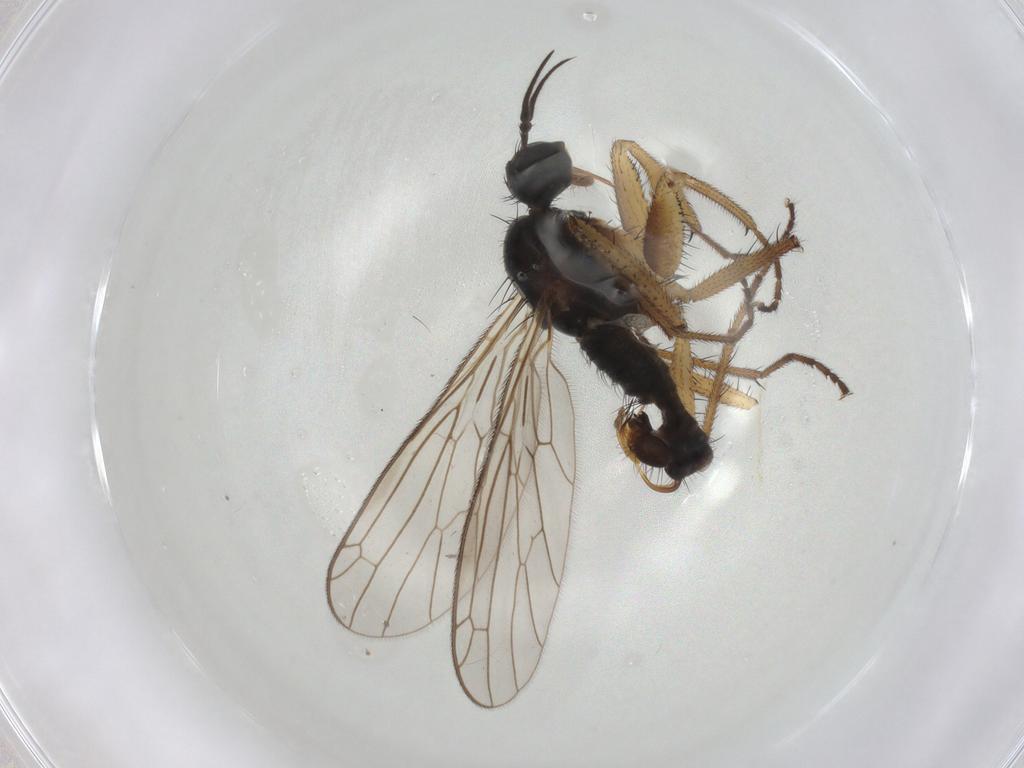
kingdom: Animalia
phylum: Arthropoda
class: Insecta
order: Diptera
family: Empididae
